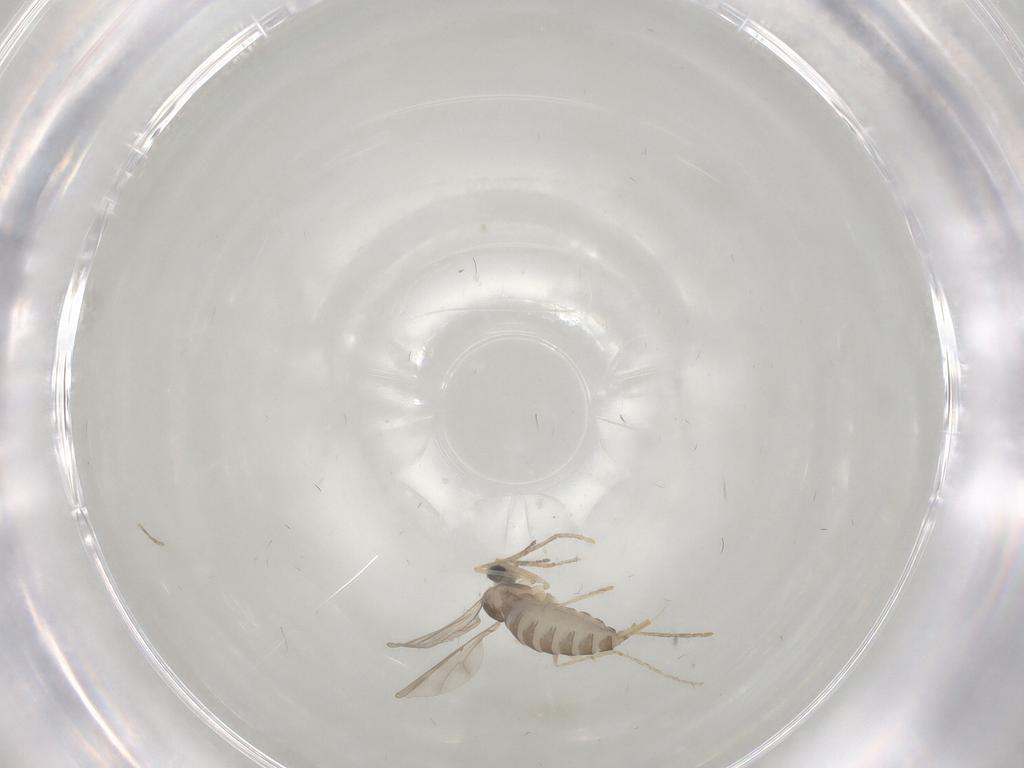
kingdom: Animalia
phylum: Arthropoda
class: Insecta
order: Diptera
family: Cecidomyiidae
